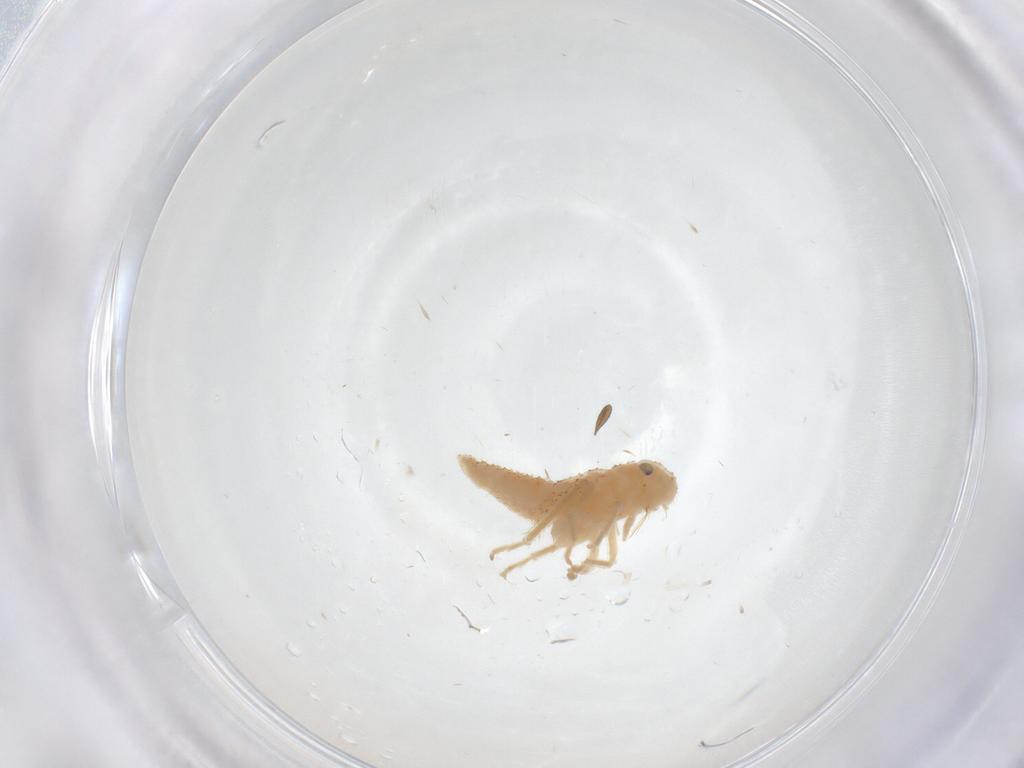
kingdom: Animalia
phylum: Arthropoda
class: Insecta
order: Hemiptera
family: Cicadellidae
